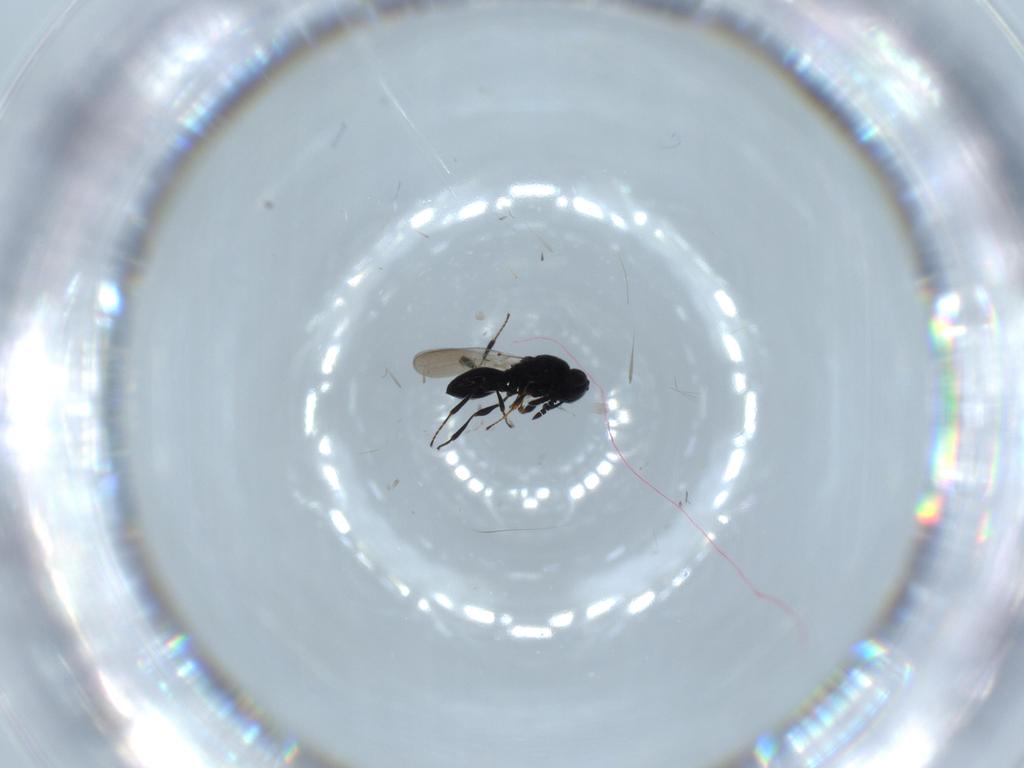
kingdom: Animalia
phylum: Arthropoda
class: Insecta
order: Hymenoptera
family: Platygastridae
